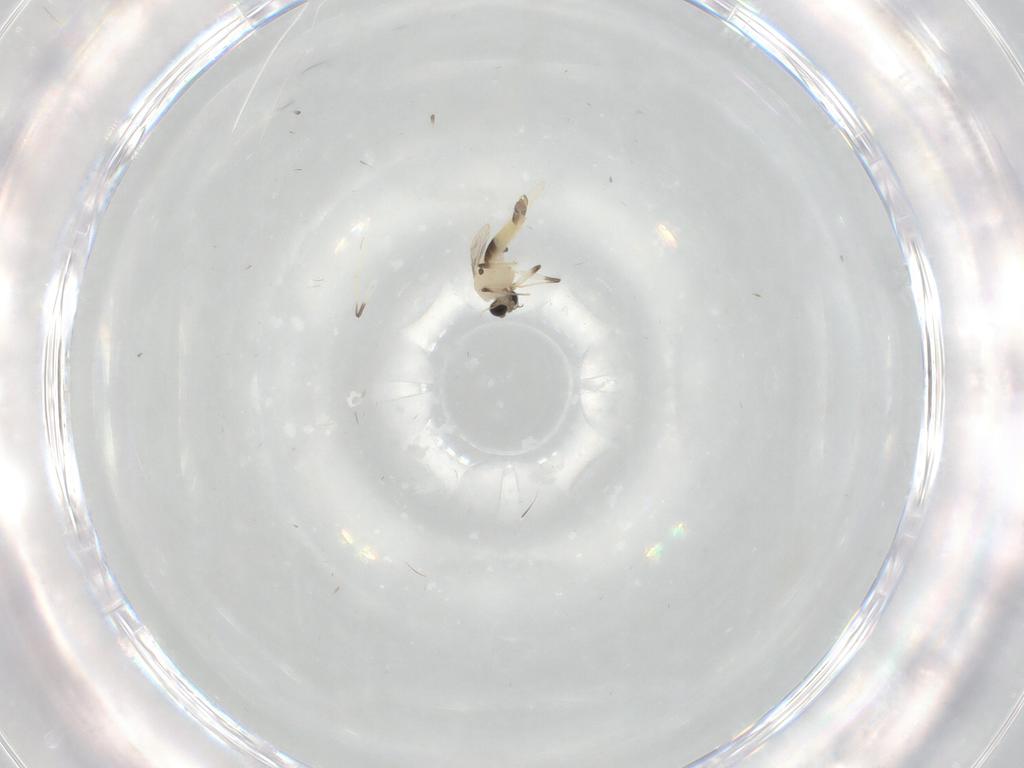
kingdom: Animalia
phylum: Arthropoda
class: Insecta
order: Diptera
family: Chironomidae
